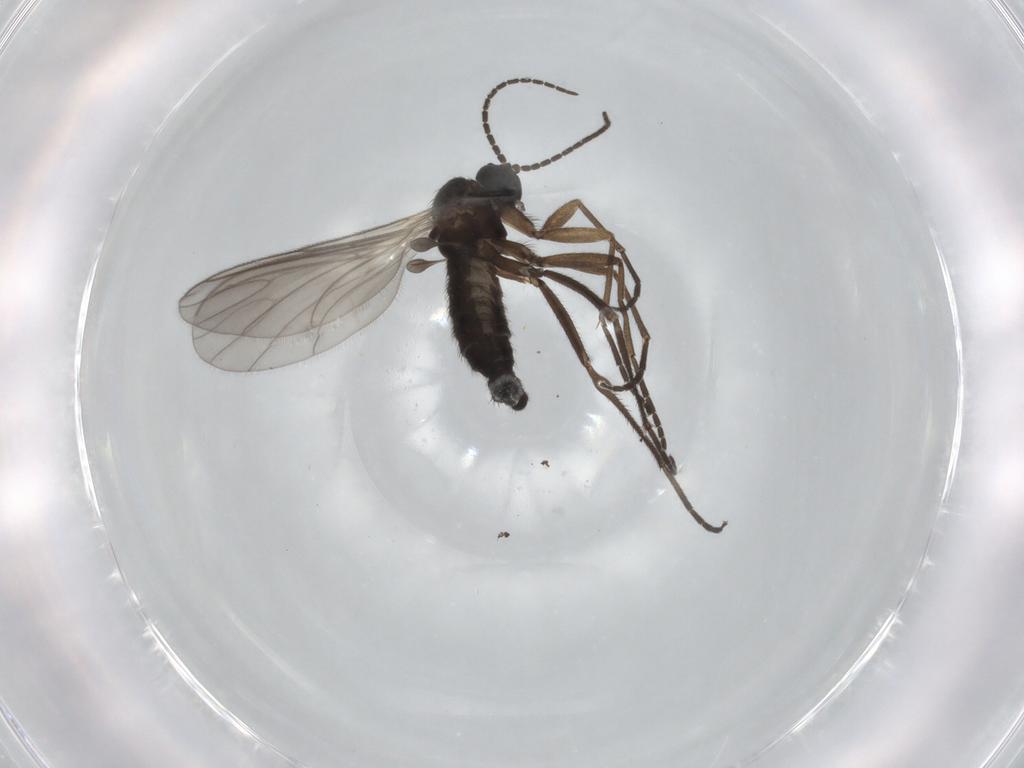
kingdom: Animalia
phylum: Arthropoda
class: Insecta
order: Diptera
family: Sciaridae
